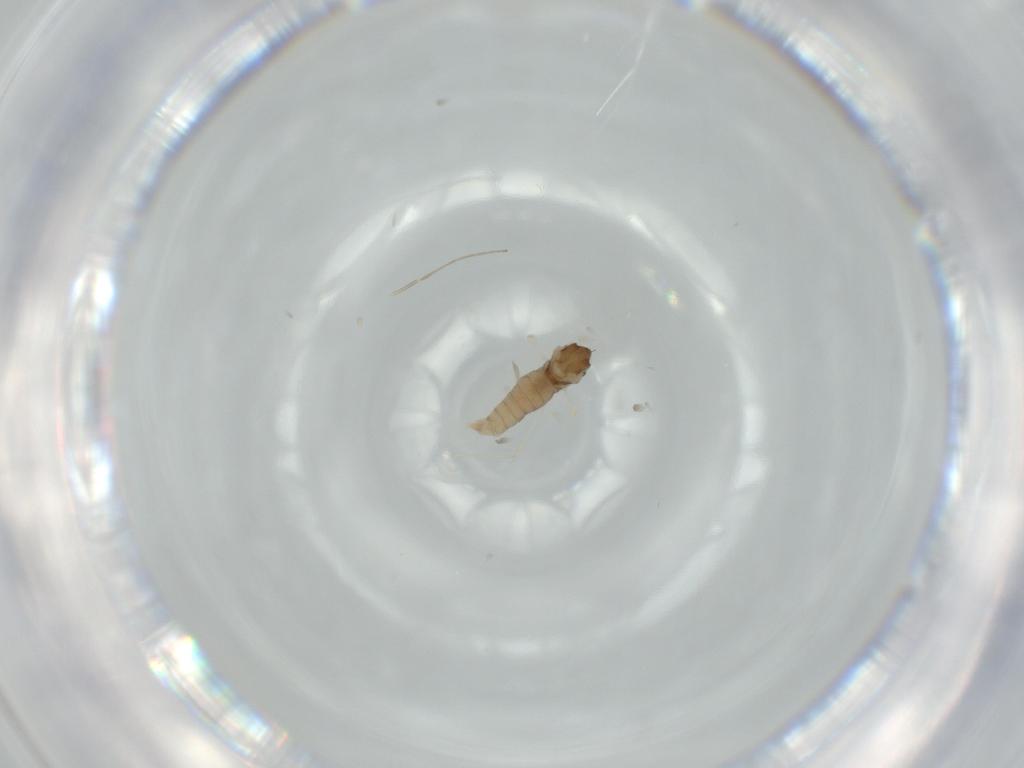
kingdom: Animalia
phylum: Arthropoda
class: Insecta
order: Diptera
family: Chironomidae
